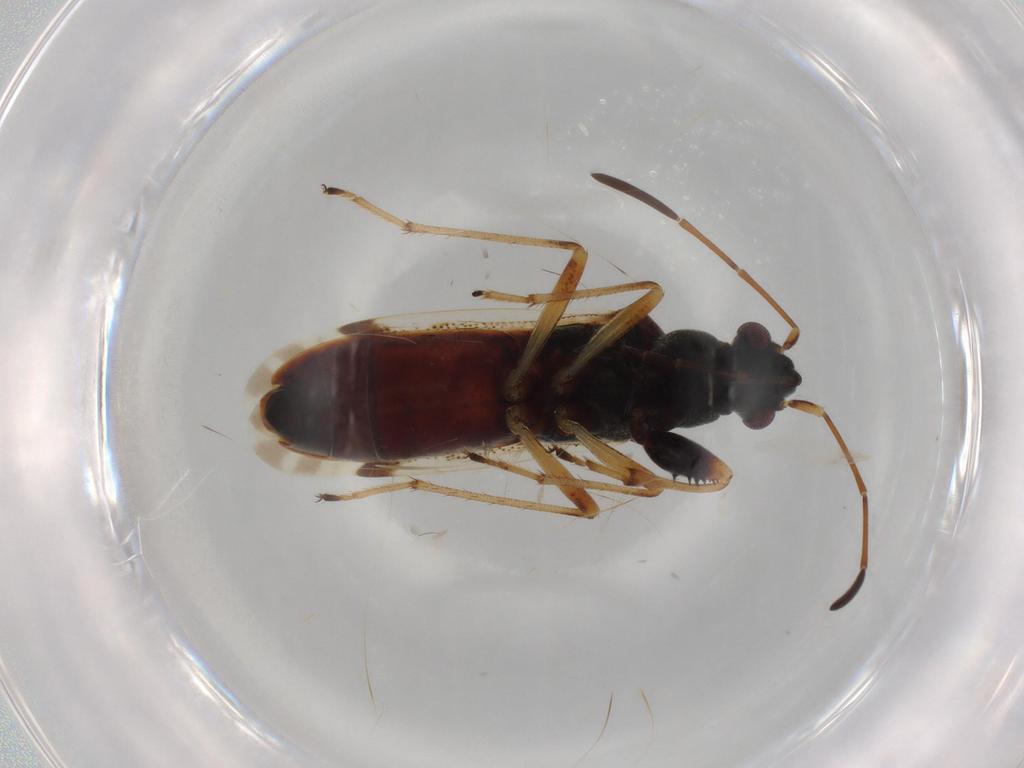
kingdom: Animalia
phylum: Arthropoda
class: Insecta
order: Hemiptera
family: Rhyparochromidae
